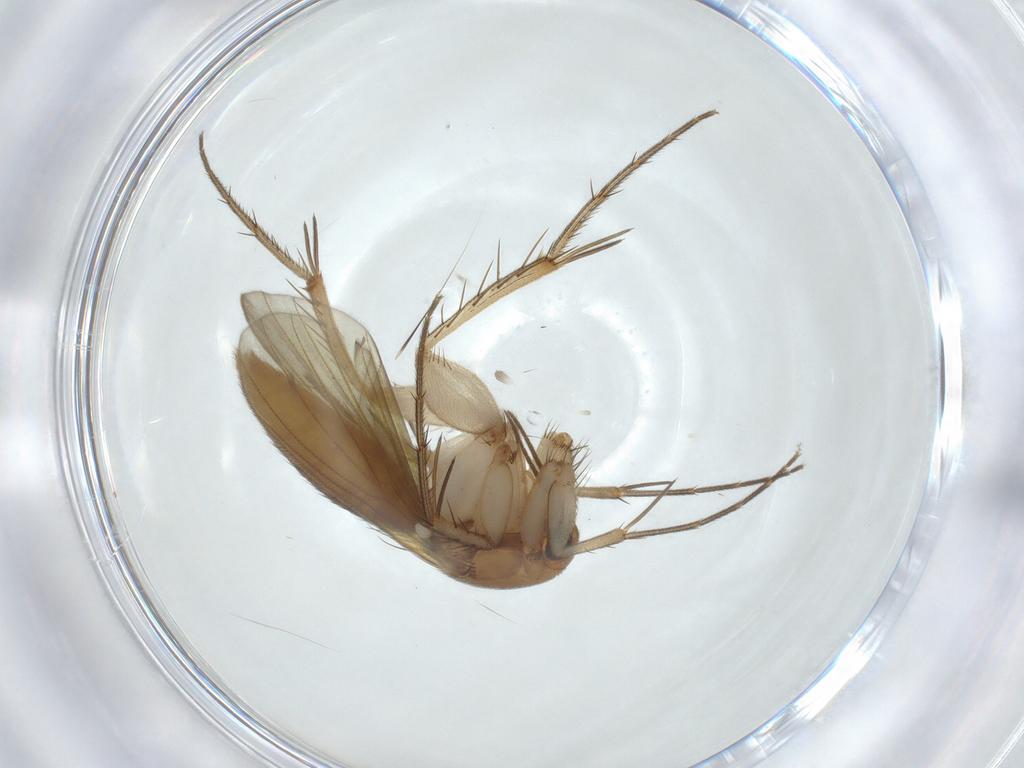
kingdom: Animalia
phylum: Arthropoda
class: Insecta
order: Diptera
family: Mycetophilidae
